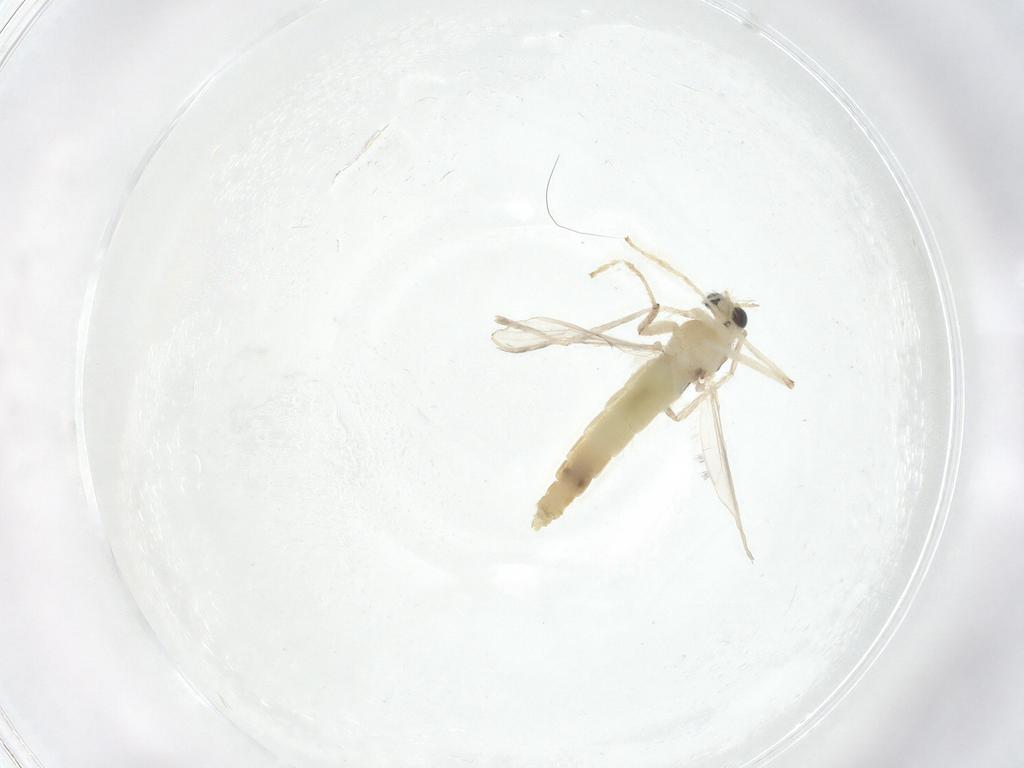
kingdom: Animalia
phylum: Arthropoda
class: Insecta
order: Diptera
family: Chironomidae
